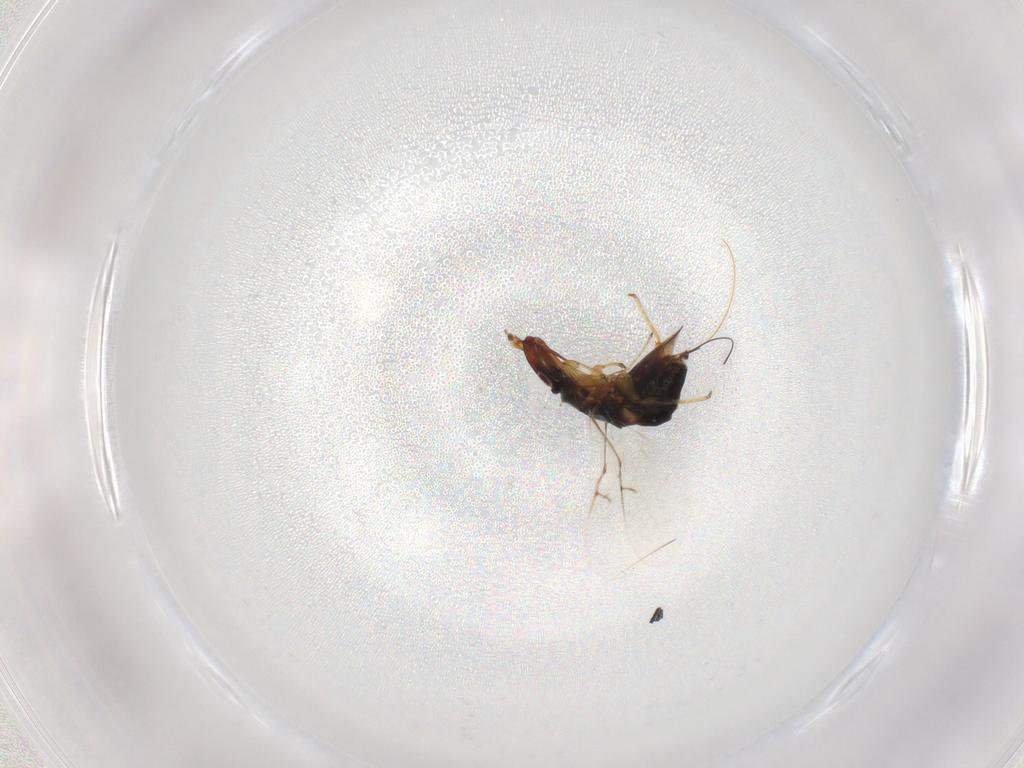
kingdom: Animalia
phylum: Arthropoda
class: Insecta
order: Hymenoptera
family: Agaonidae
